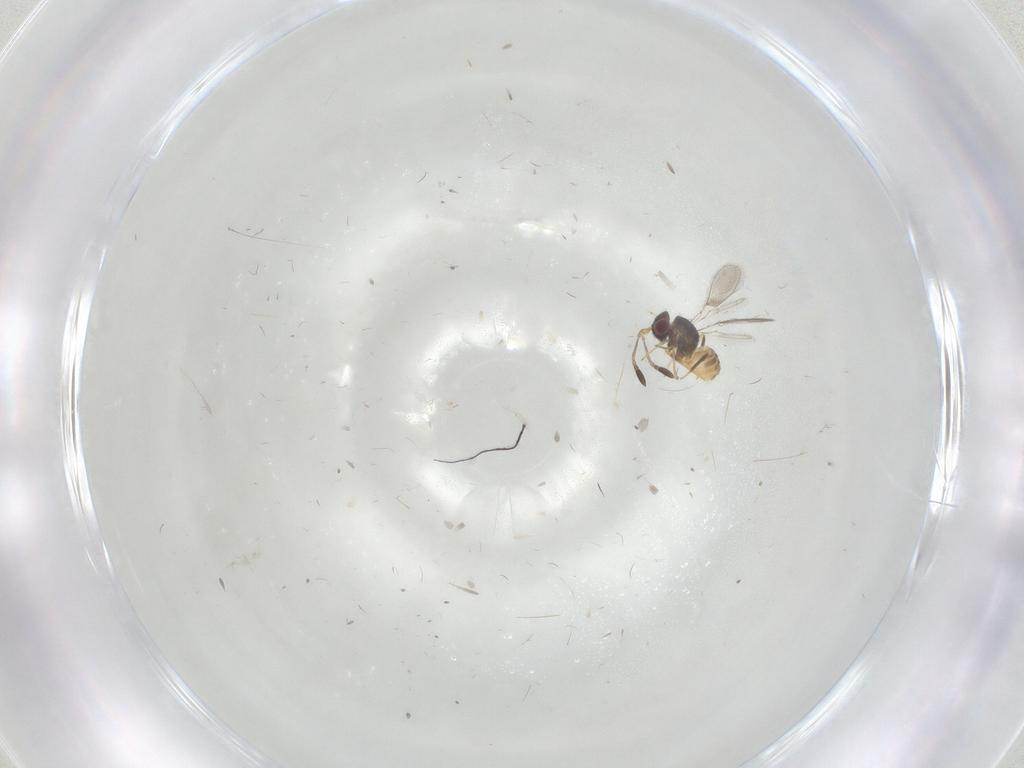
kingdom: Animalia
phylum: Arthropoda
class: Insecta
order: Hymenoptera
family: Mymaridae
